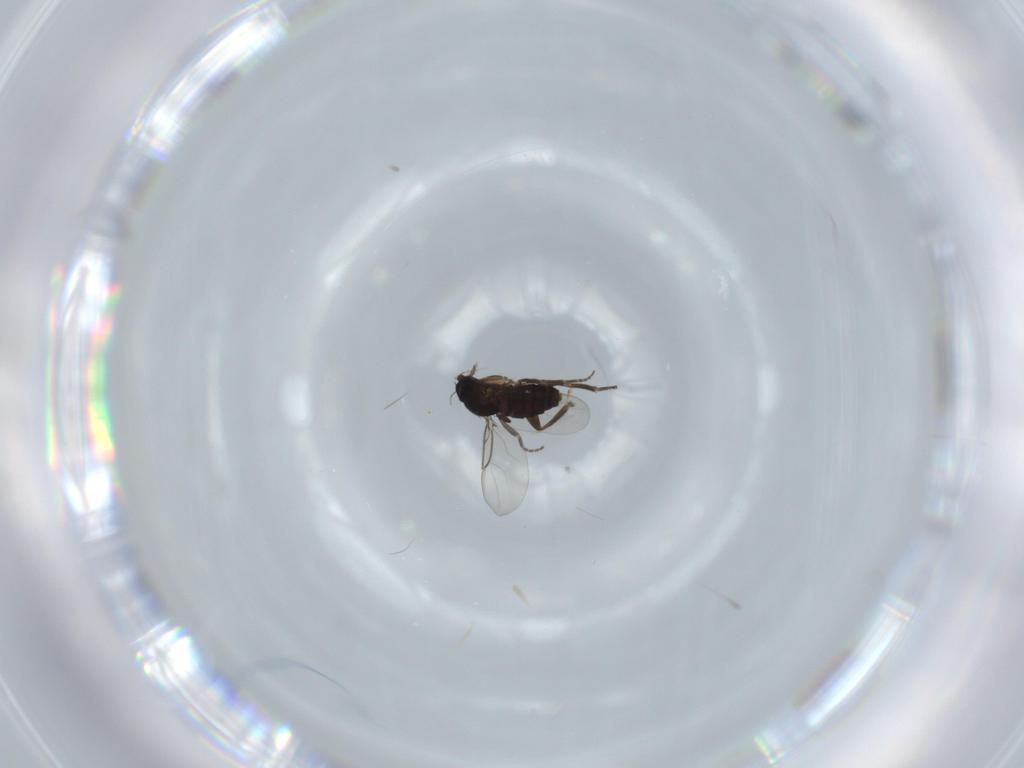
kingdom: Animalia
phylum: Arthropoda
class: Insecta
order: Diptera
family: Phoridae
